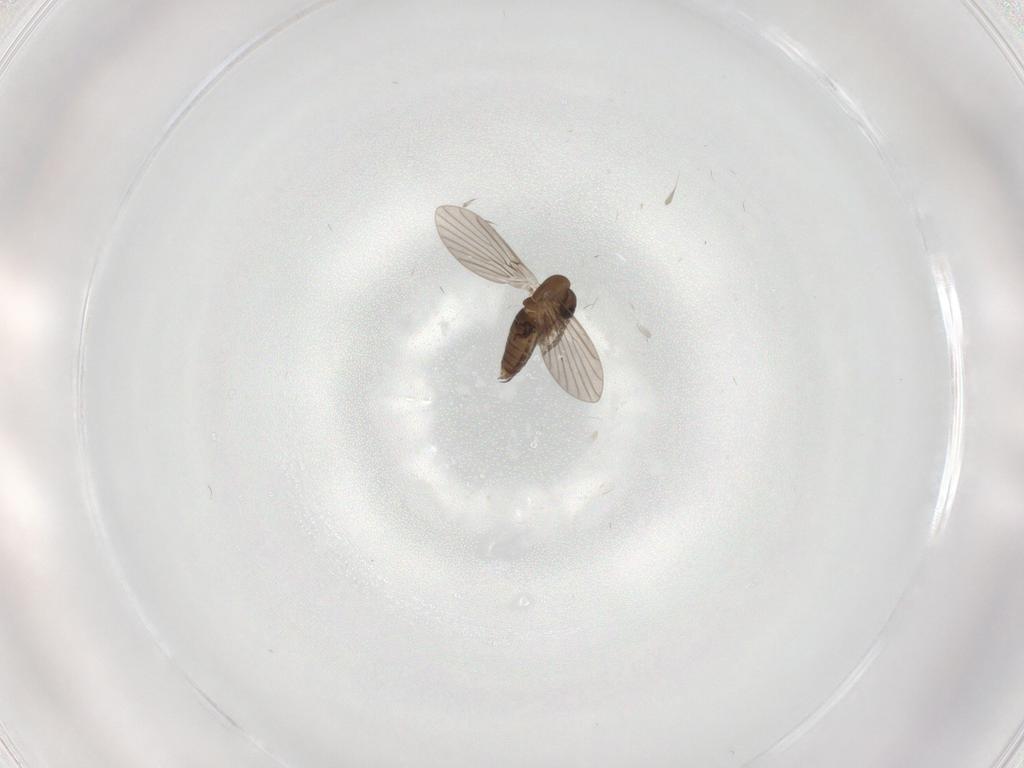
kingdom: Animalia
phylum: Arthropoda
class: Insecta
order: Diptera
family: Sciaridae
